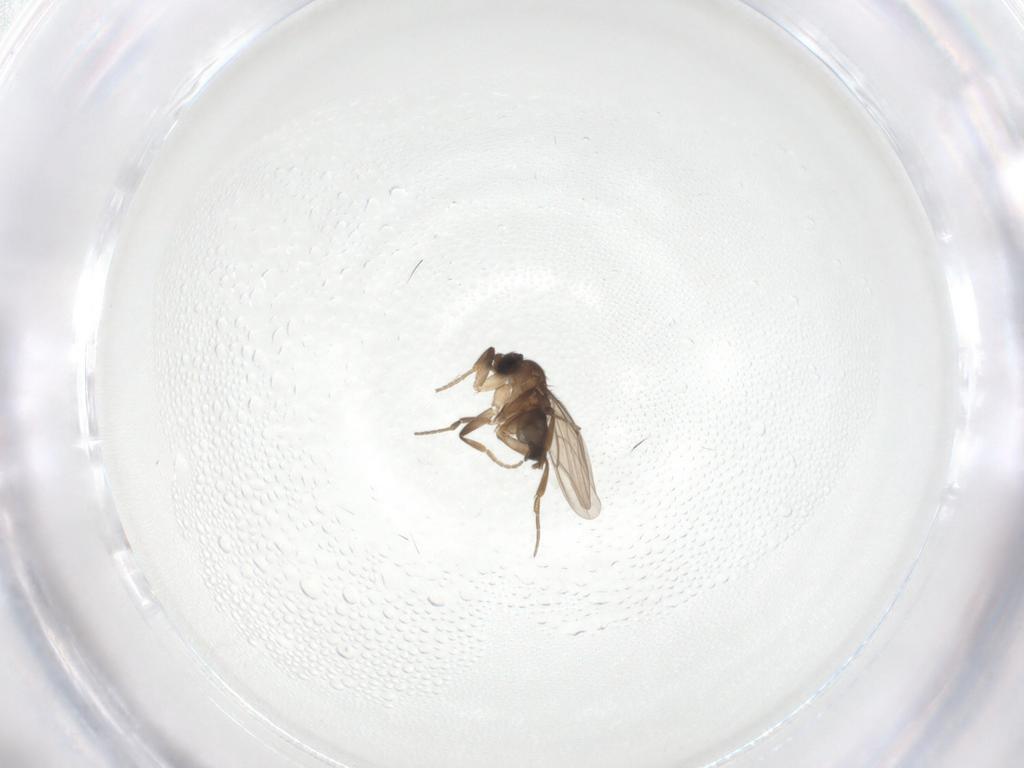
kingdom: Animalia
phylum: Arthropoda
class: Insecta
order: Diptera
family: Phoridae
